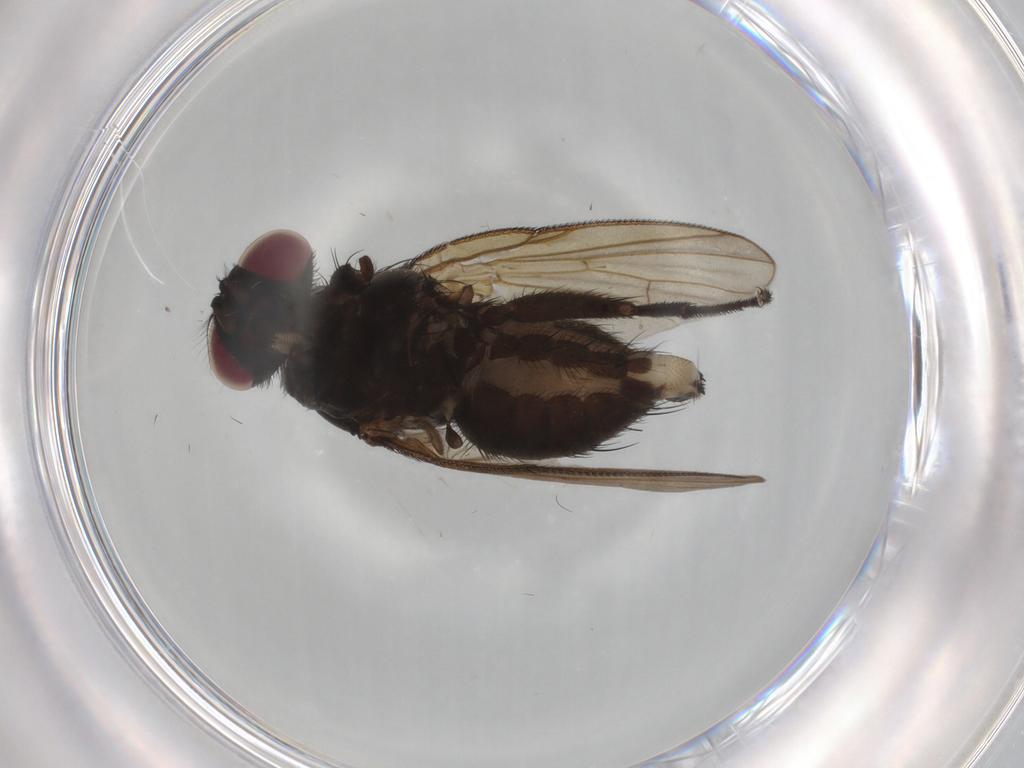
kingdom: Animalia
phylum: Arthropoda
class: Insecta
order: Diptera
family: Muscidae
